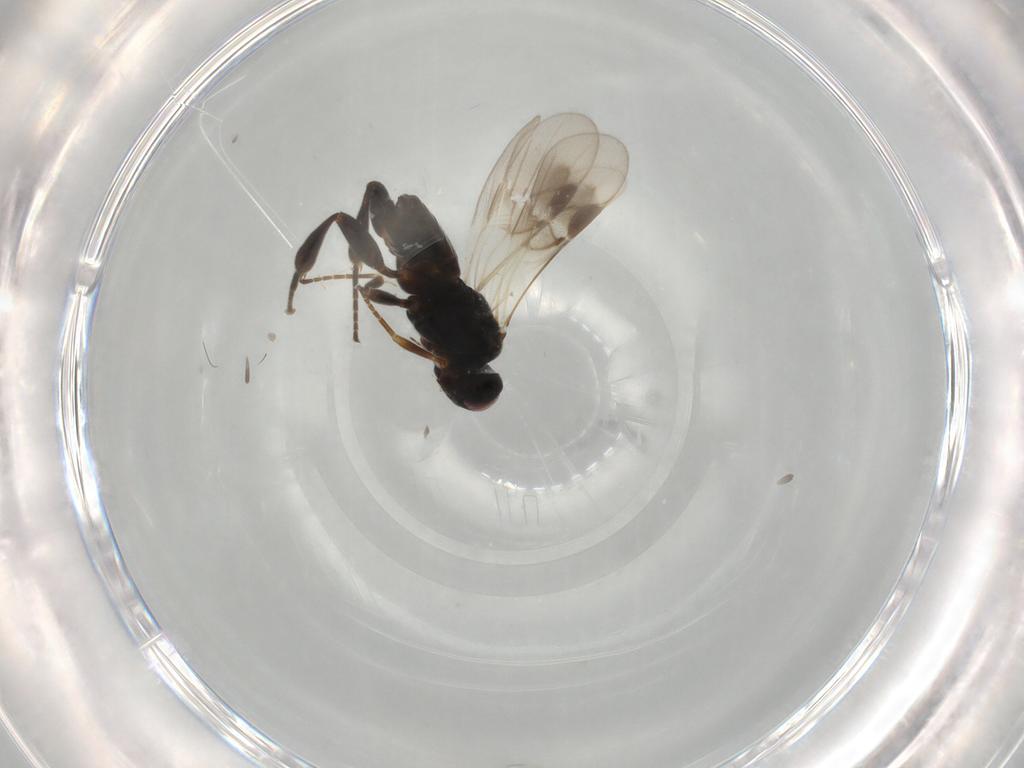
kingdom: Animalia
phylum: Arthropoda
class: Insecta
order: Hymenoptera
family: Braconidae
